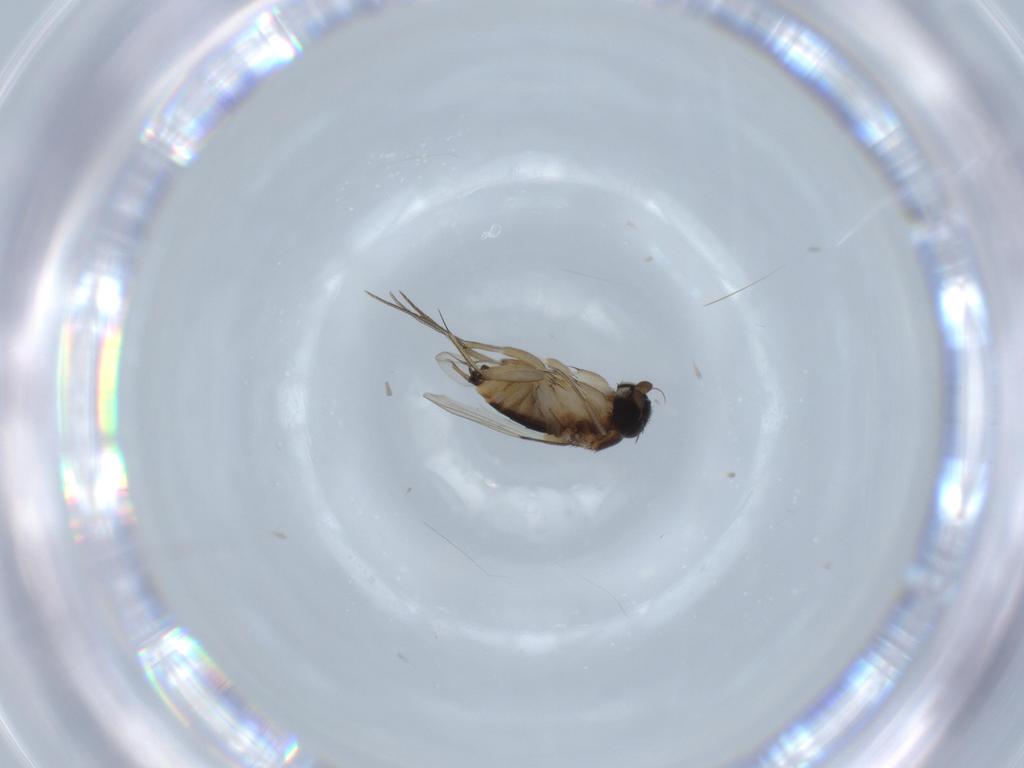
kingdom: Animalia
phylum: Arthropoda
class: Insecta
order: Diptera
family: Phoridae
